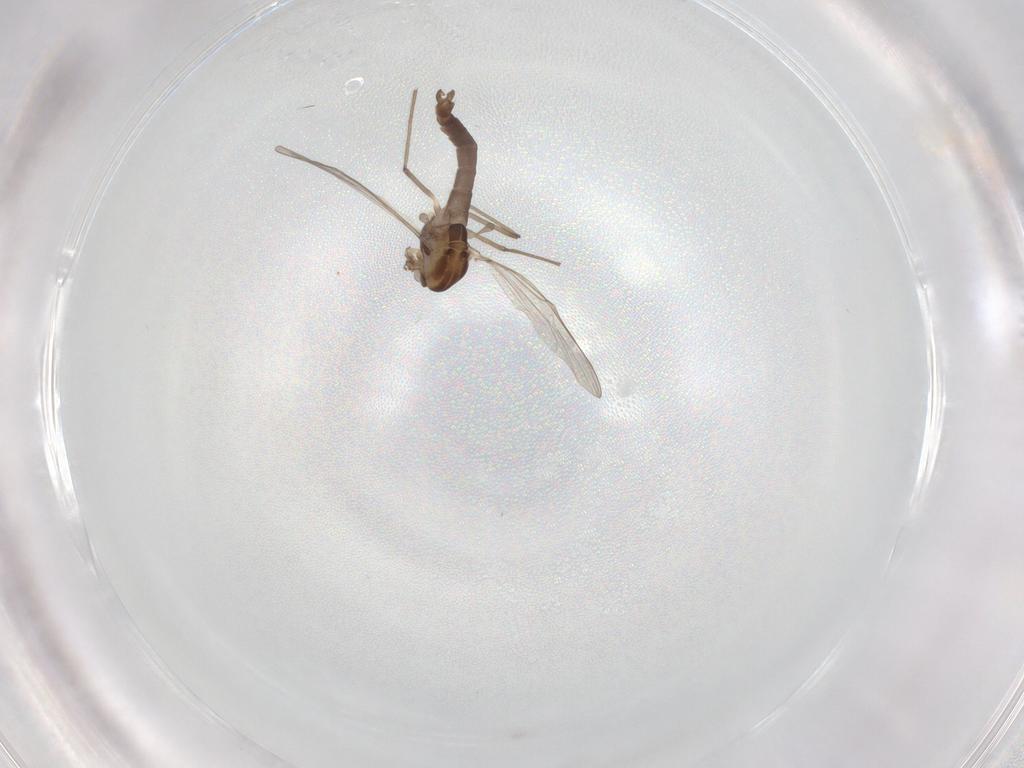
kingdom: Animalia
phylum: Arthropoda
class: Insecta
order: Diptera
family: Chironomidae
